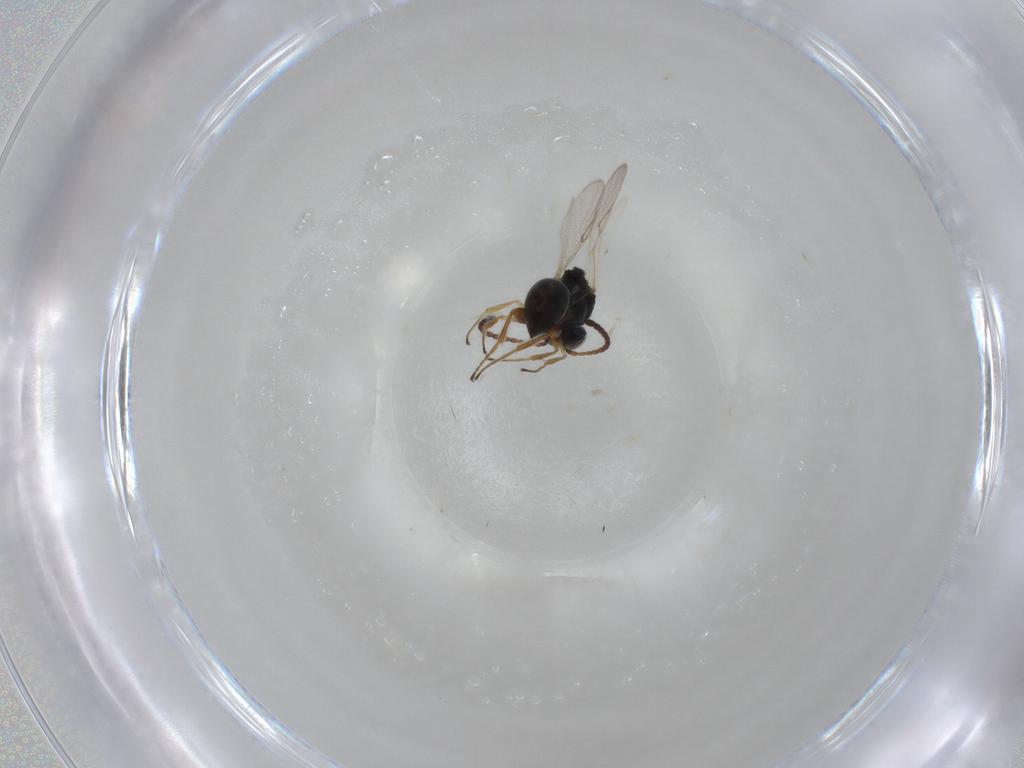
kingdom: Animalia
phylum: Arthropoda
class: Insecta
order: Hymenoptera
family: Figitidae
